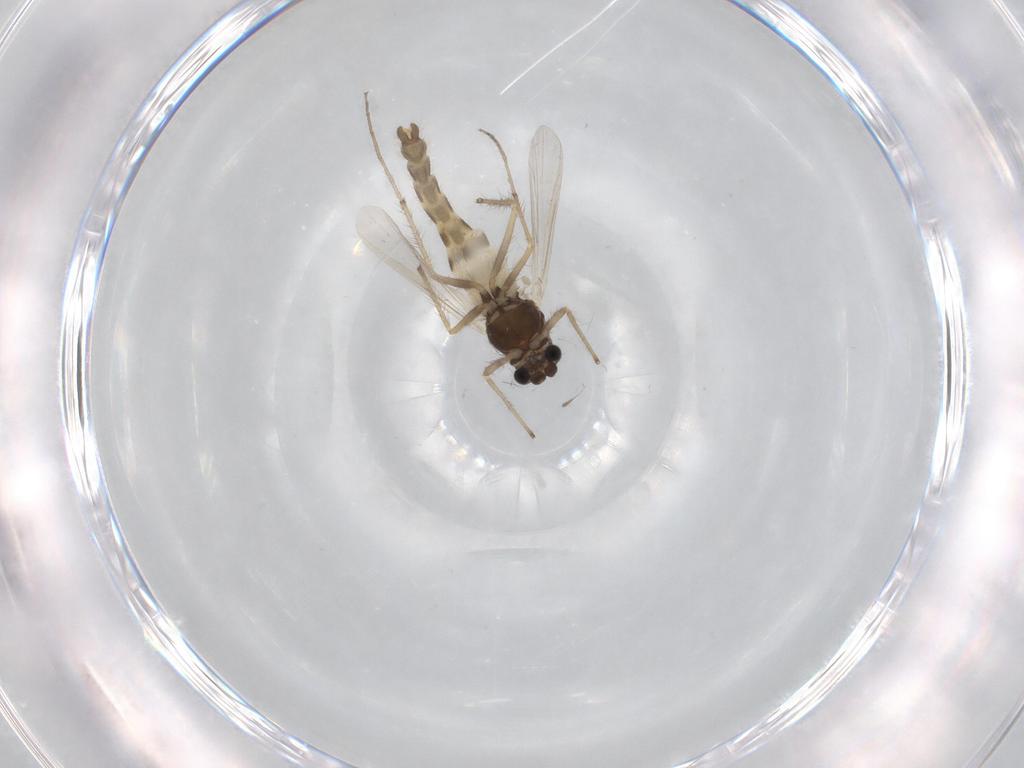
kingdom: Animalia
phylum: Arthropoda
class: Insecta
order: Diptera
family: Chironomidae
